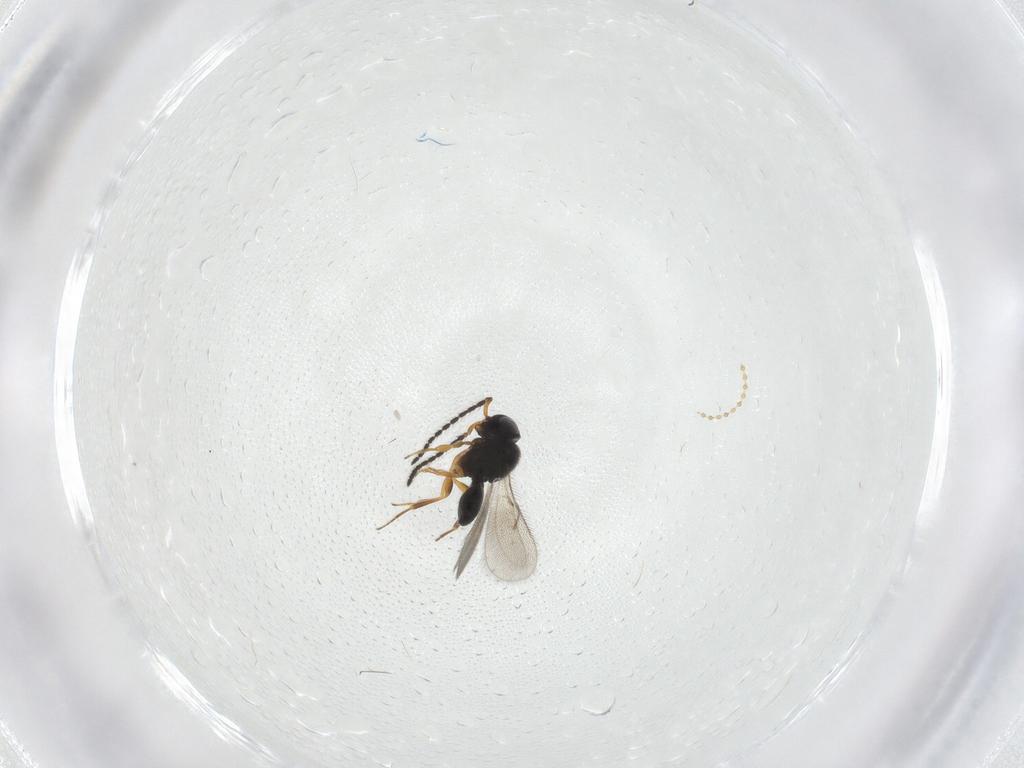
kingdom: Animalia
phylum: Arthropoda
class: Insecta
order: Hymenoptera
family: Scelionidae
